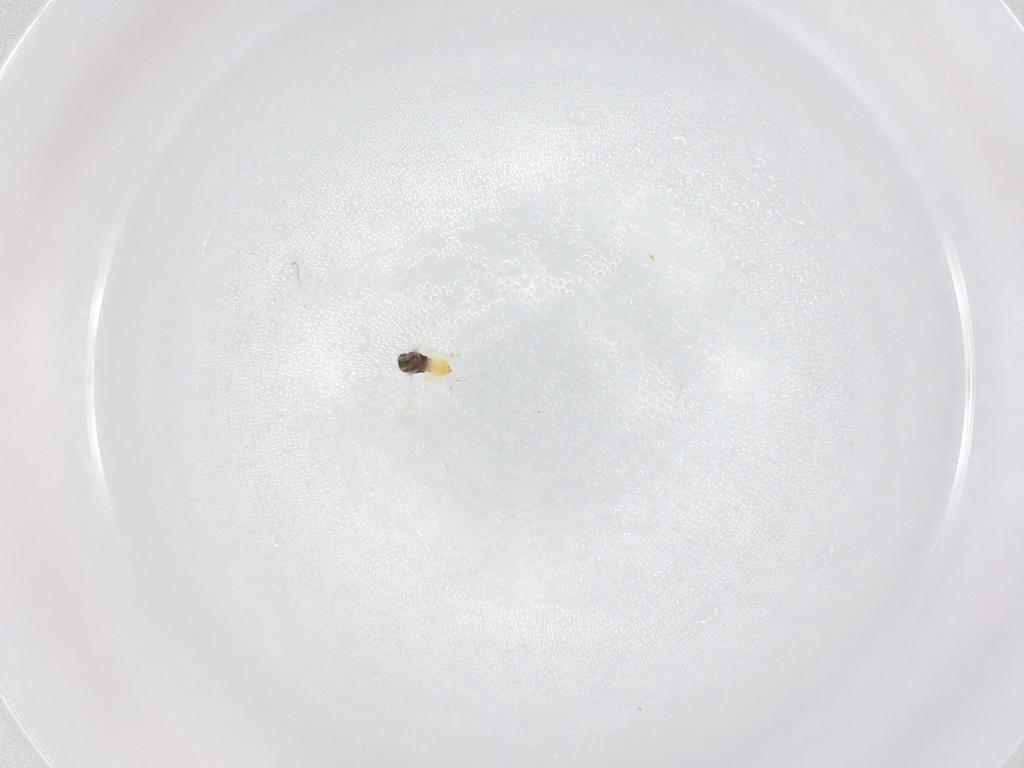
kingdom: Animalia
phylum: Arthropoda
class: Insecta
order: Hymenoptera
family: Eulophidae
